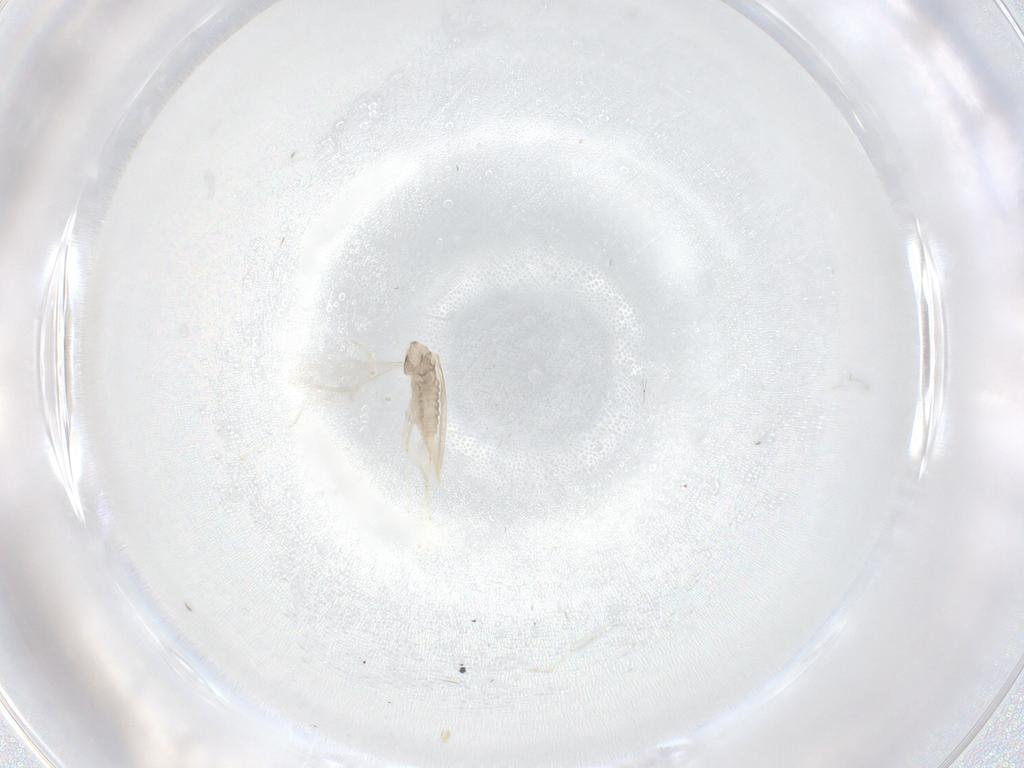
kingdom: Animalia
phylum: Arthropoda
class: Insecta
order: Diptera
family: Cecidomyiidae
